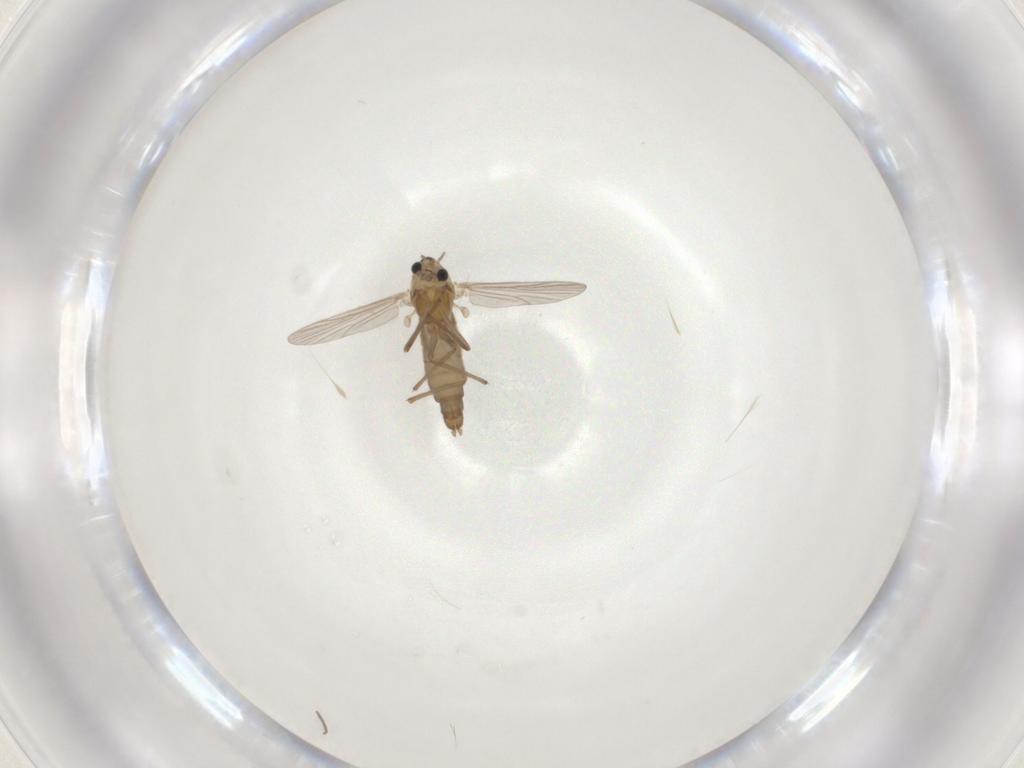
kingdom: Animalia
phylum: Arthropoda
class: Insecta
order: Diptera
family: Chironomidae
